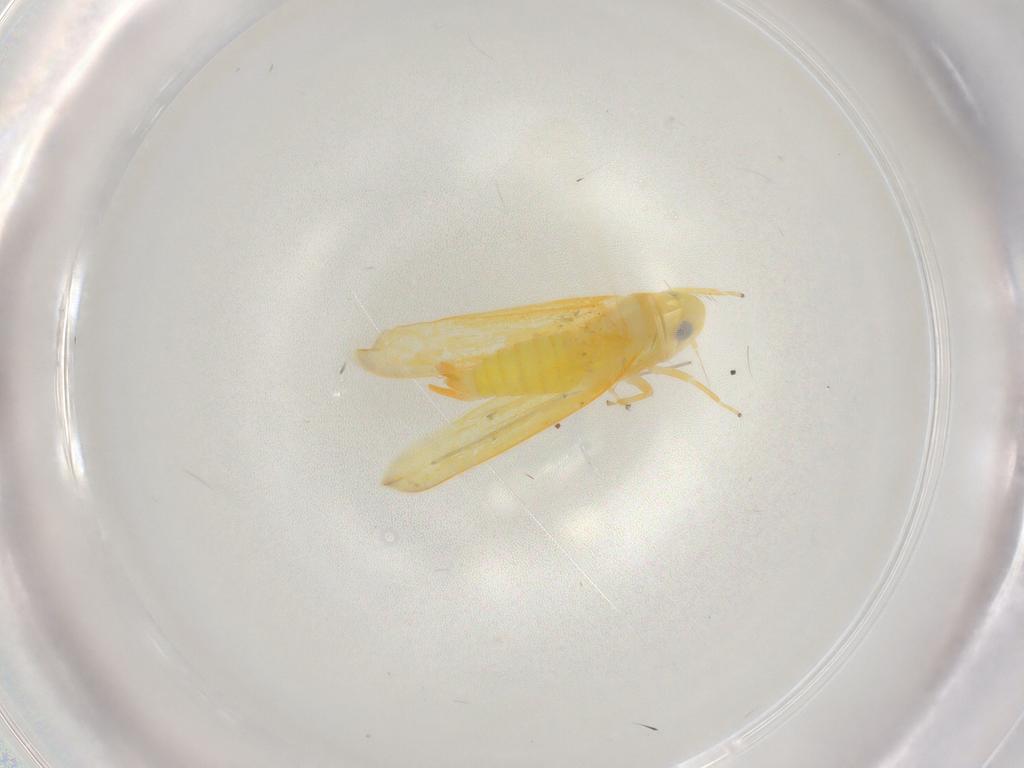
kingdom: Animalia
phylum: Arthropoda
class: Insecta
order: Hemiptera
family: Cicadellidae
